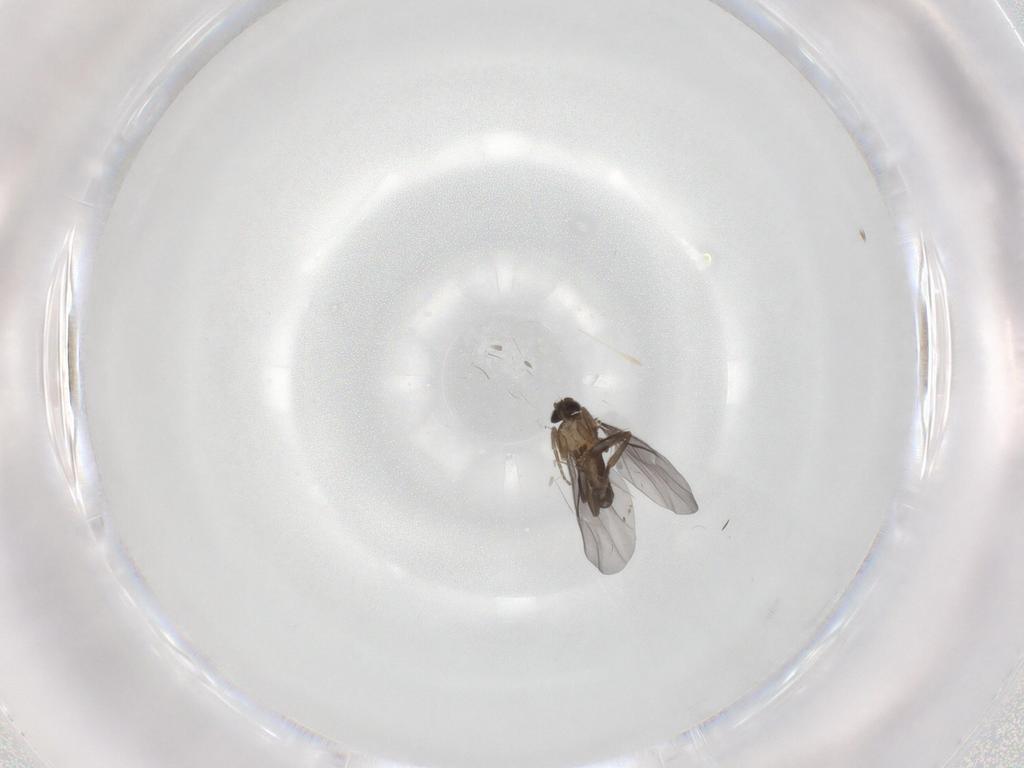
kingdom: Animalia
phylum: Arthropoda
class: Insecta
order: Diptera
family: Phoridae
